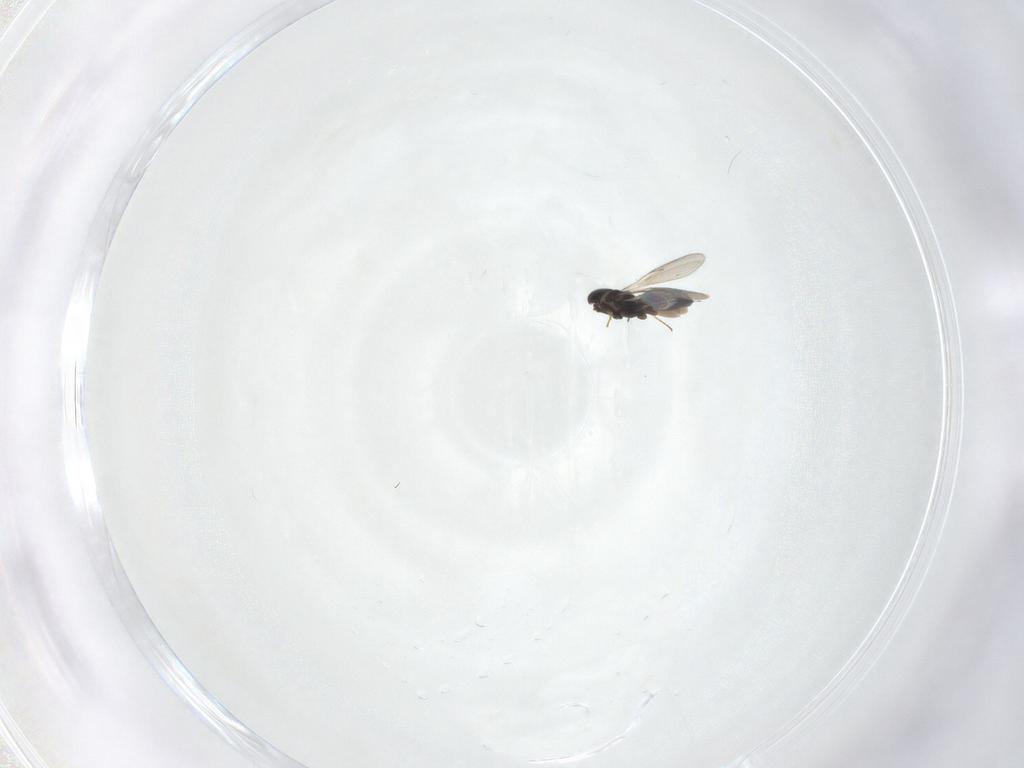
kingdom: Animalia
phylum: Arthropoda
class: Insecta
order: Hymenoptera
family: Scelionidae
